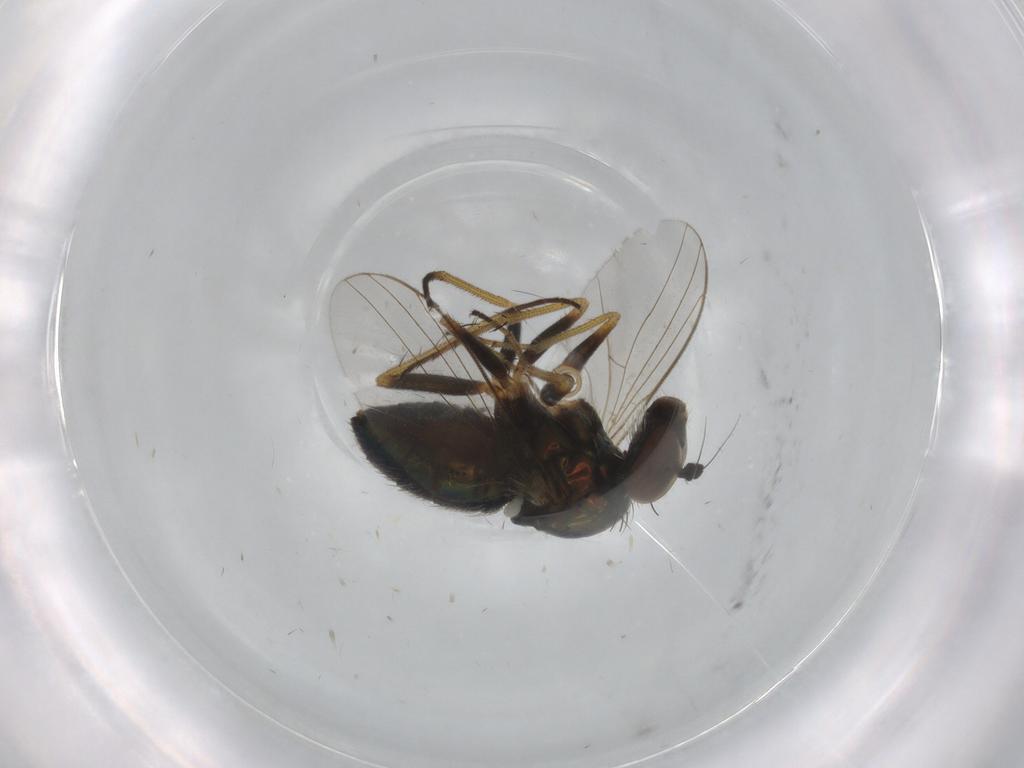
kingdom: Animalia
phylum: Arthropoda
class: Insecta
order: Diptera
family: Dolichopodidae
